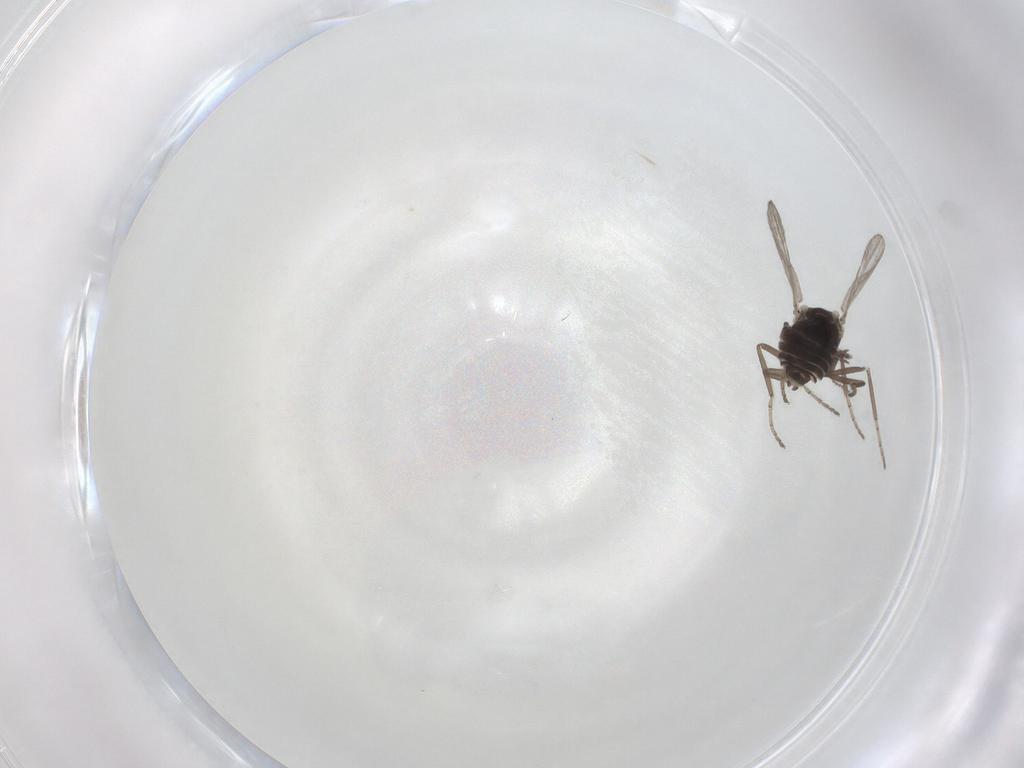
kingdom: Animalia
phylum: Arthropoda
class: Insecta
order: Diptera
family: Ceratopogonidae
